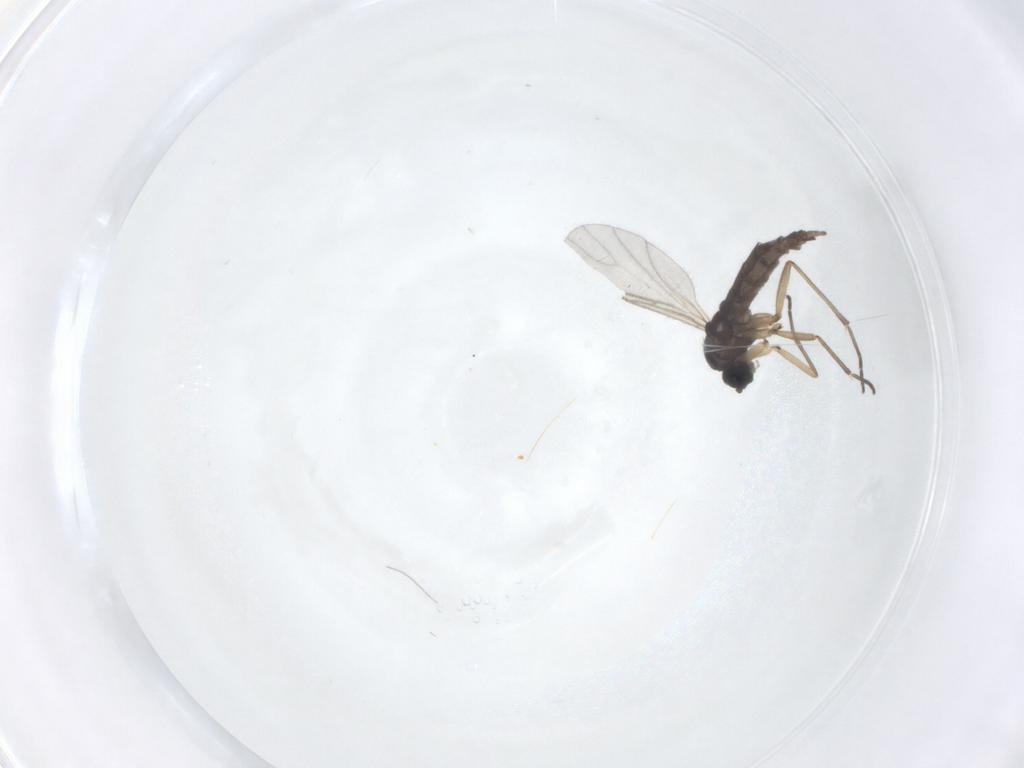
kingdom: Animalia
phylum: Arthropoda
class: Insecta
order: Diptera
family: Sciaridae
